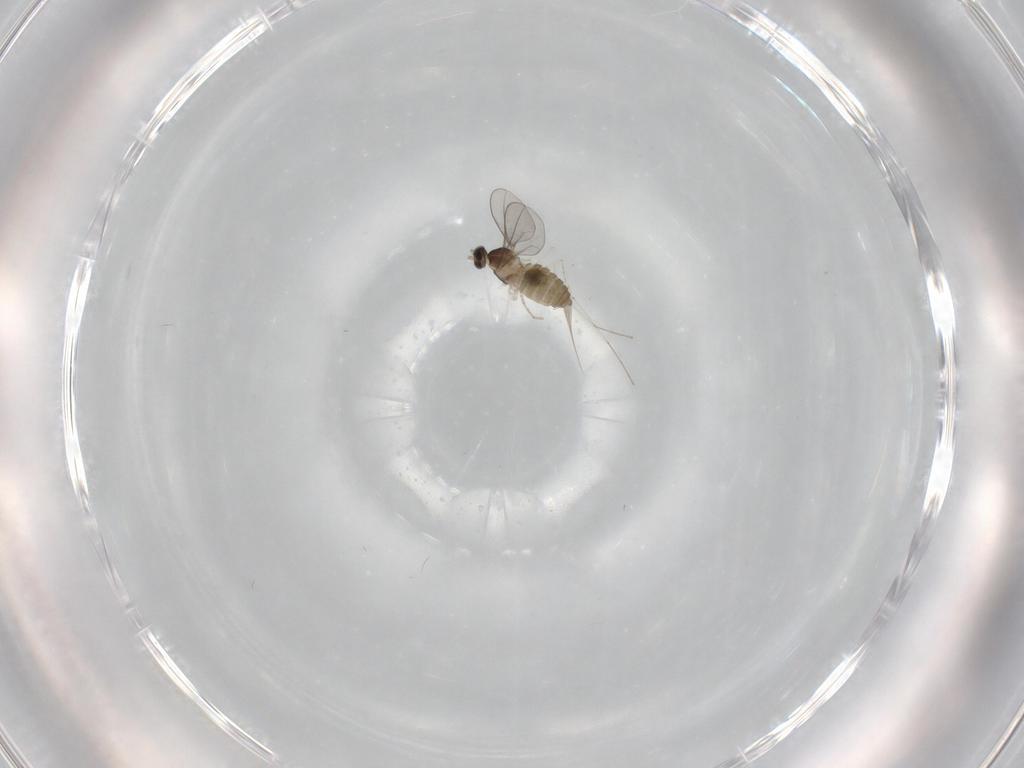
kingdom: Animalia
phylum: Arthropoda
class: Insecta
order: Diptera
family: Cecidomyiidae
